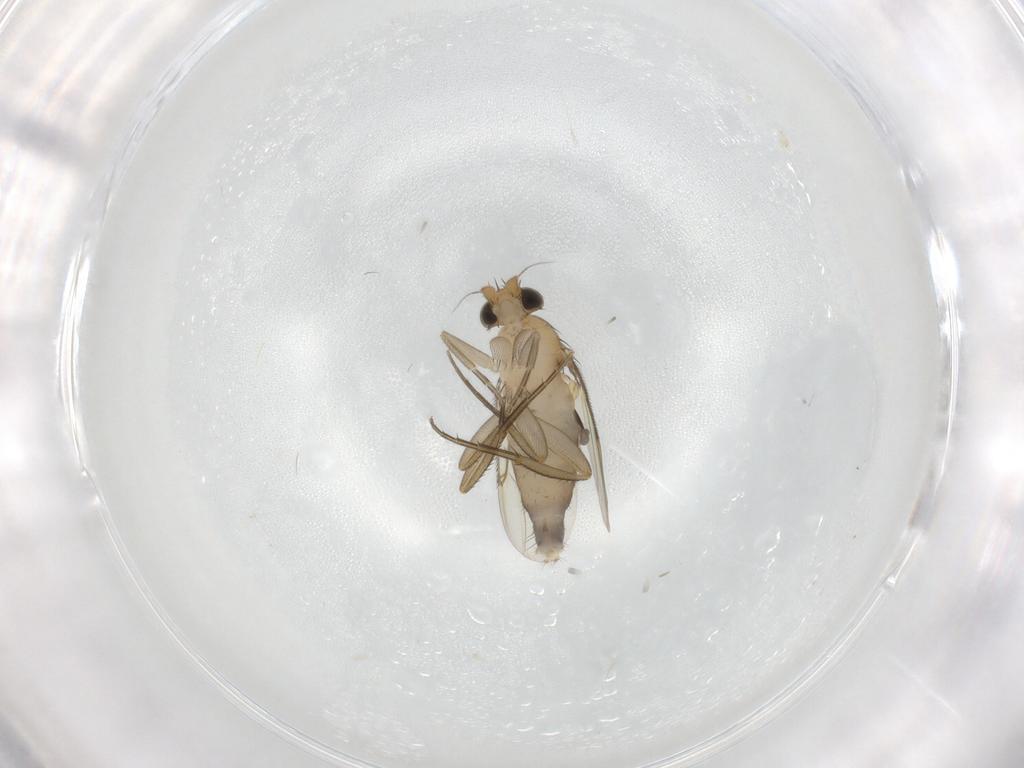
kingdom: Animalia
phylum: Arthropoda
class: Insecta
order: Diptera
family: Phoridae
